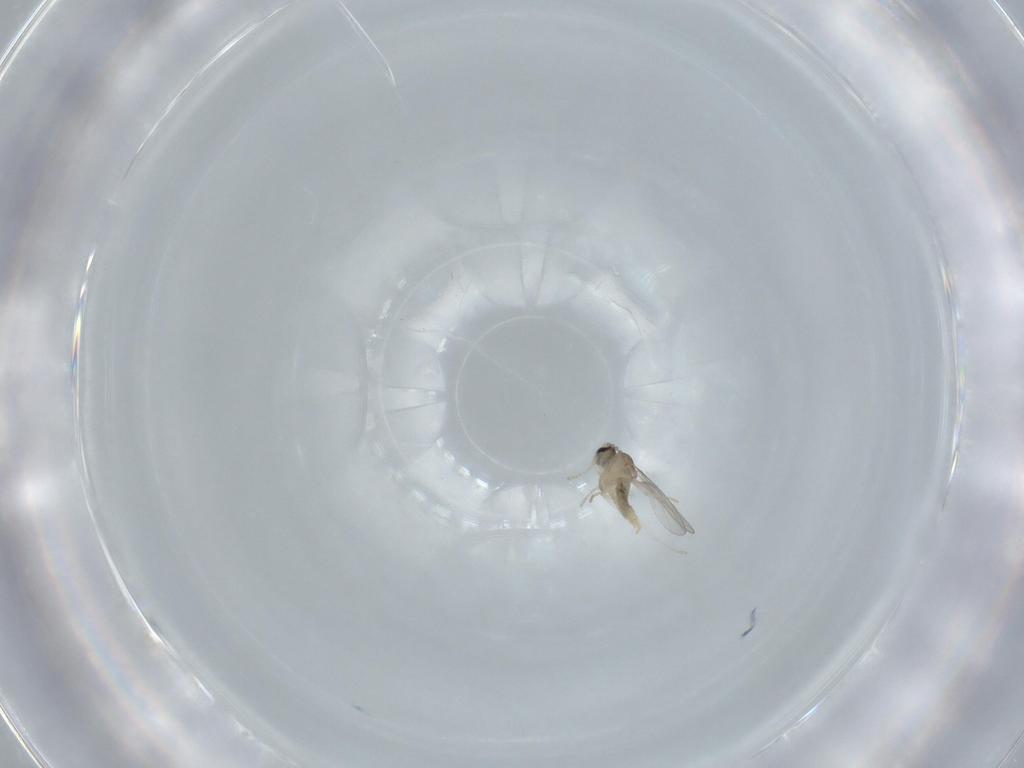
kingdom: Animalia
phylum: Arthropoda
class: Insecta
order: Diptera
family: Cecidomyiidae
